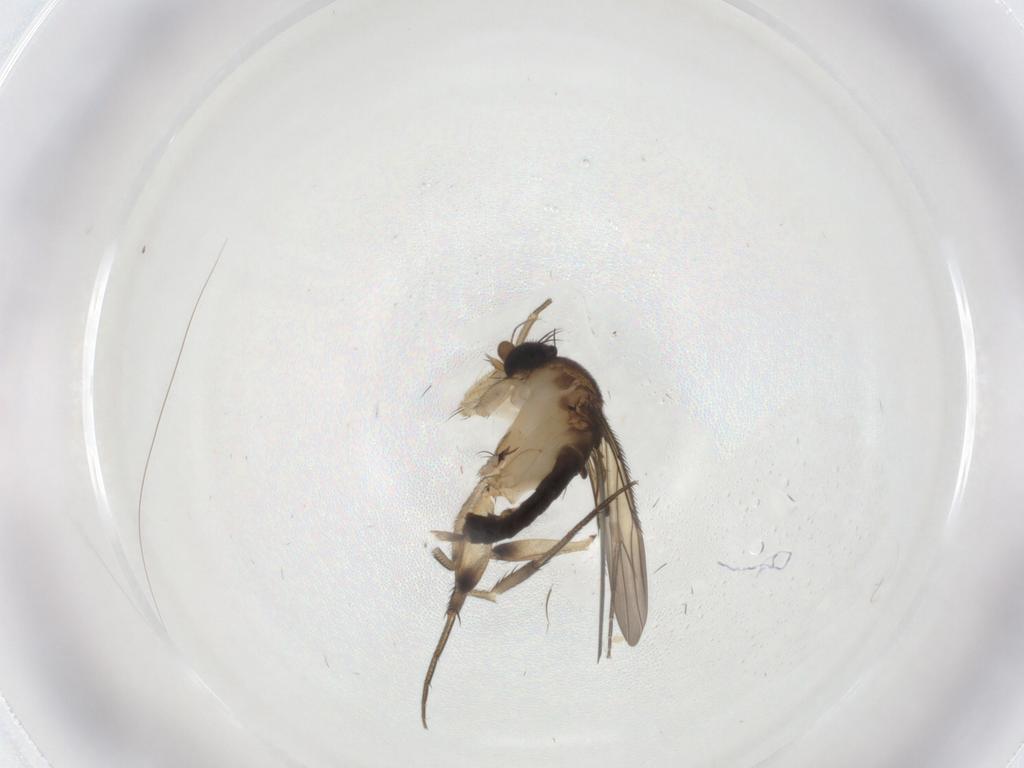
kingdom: Animalia
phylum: Arthropoda
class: Insecta
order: Diptera
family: Phoridae
